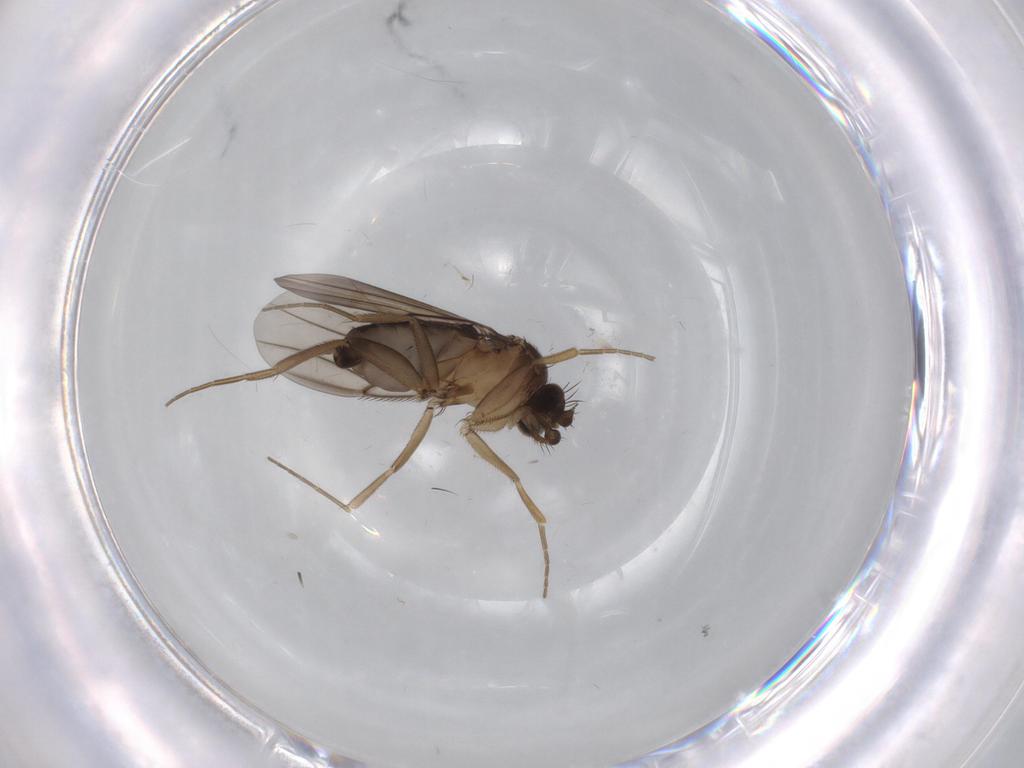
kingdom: Animalia
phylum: Arthropoda
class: Insecta
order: Diptera
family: Phoridae
